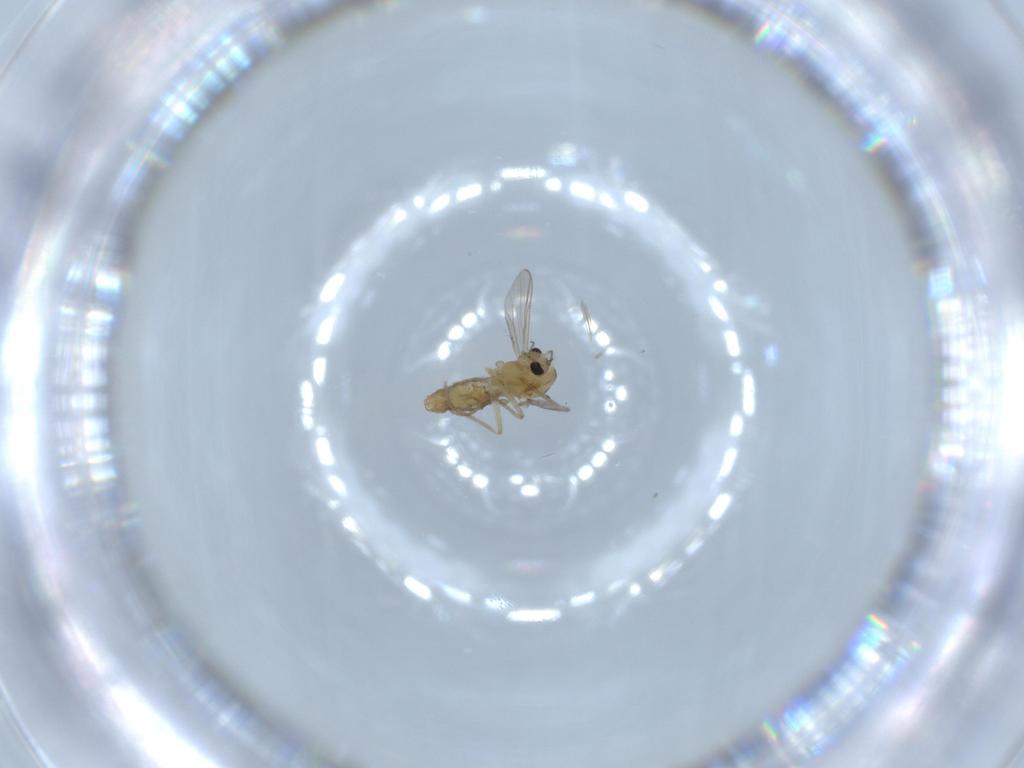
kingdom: Animalia
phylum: Arthropoda
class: Insecta
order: Diptera
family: Chironomidae
